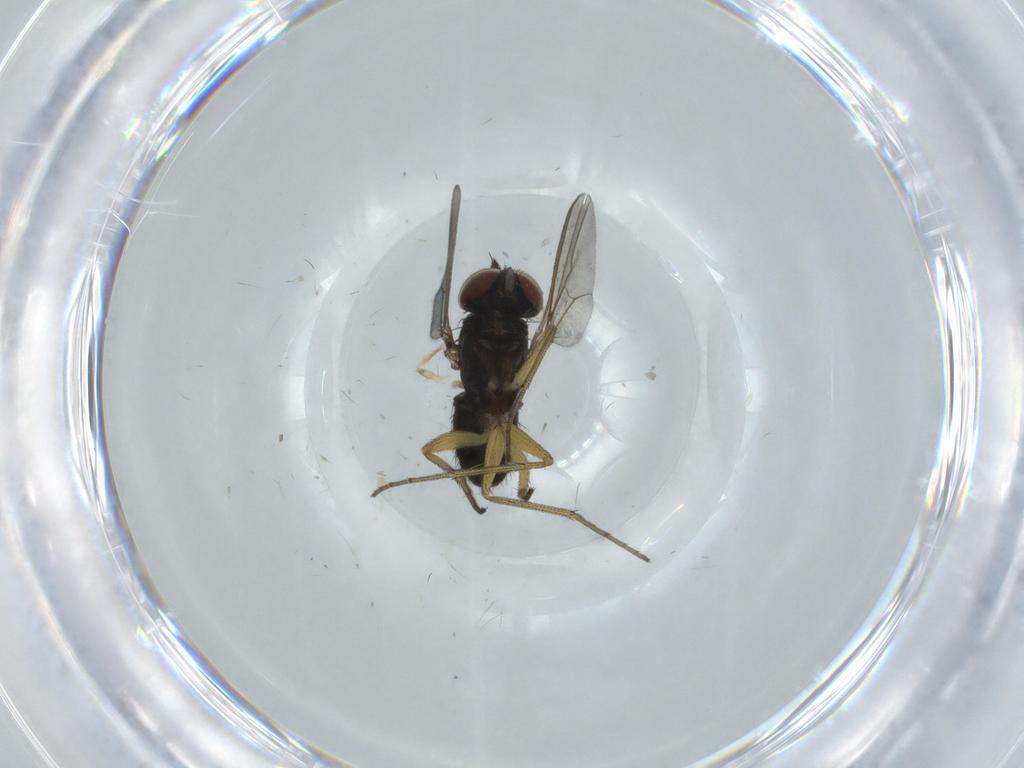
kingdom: Animalia
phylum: Arthropoda
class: Insecta
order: Diptera
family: Dolichopodidae
